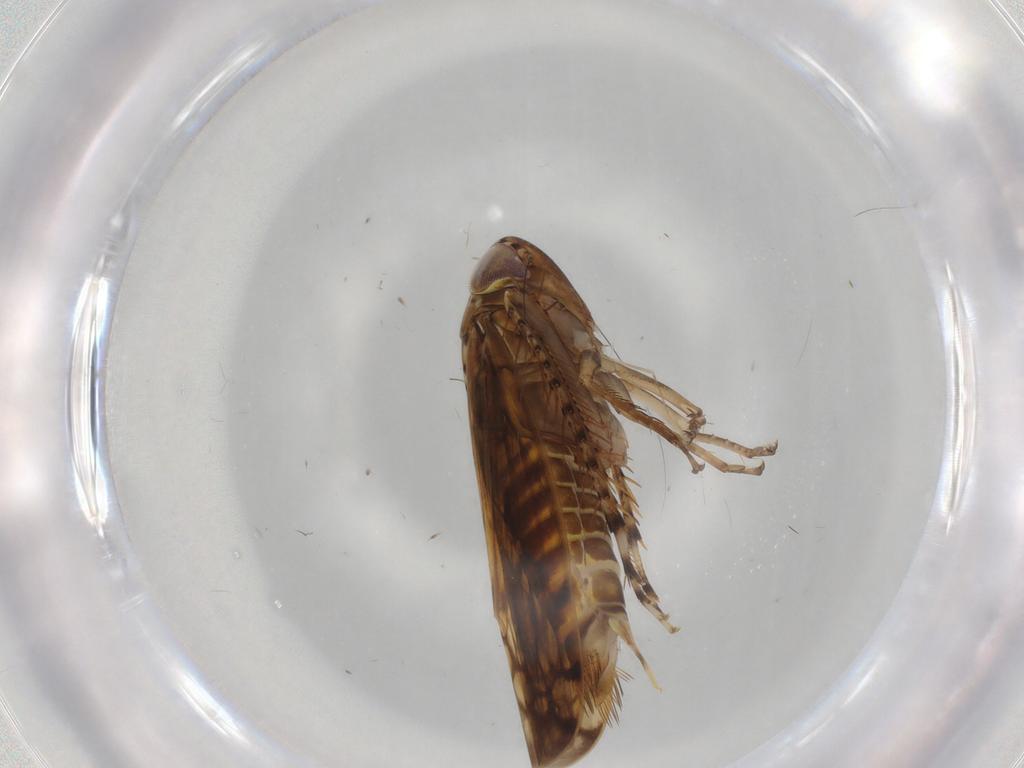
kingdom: Animalia
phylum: Arthropoda
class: Insecta
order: Hemiptera
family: Cicadellidae
